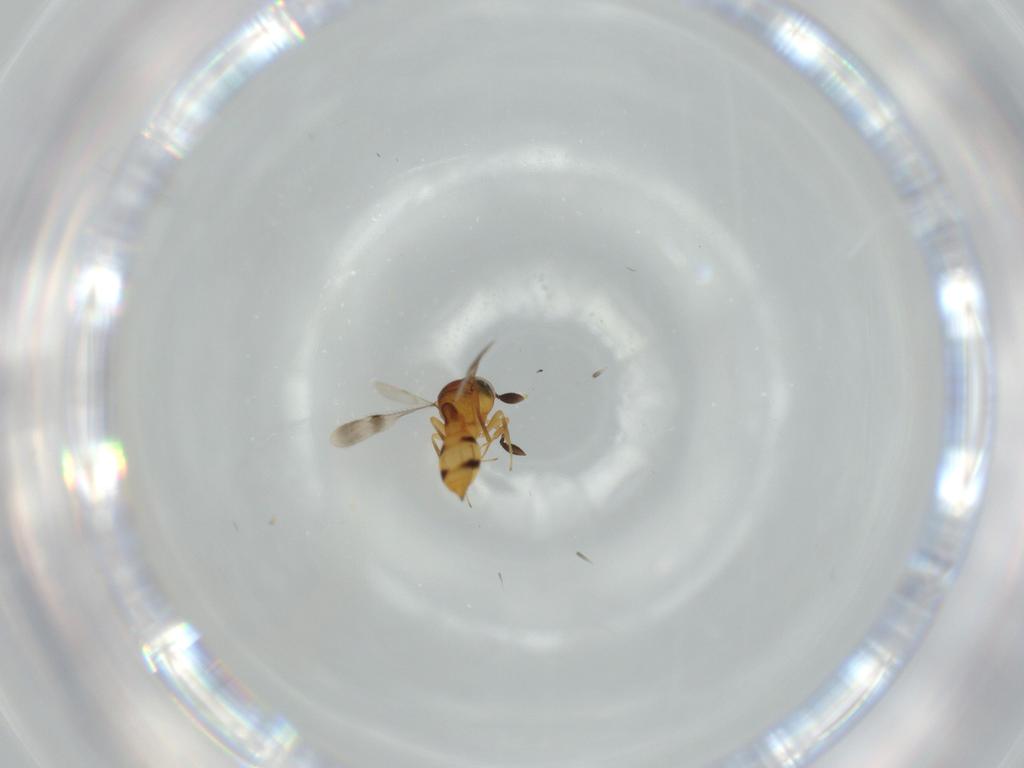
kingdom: Animalia
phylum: Arthropoda
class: Insecta
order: Hymenoptera
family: Scelionidae
